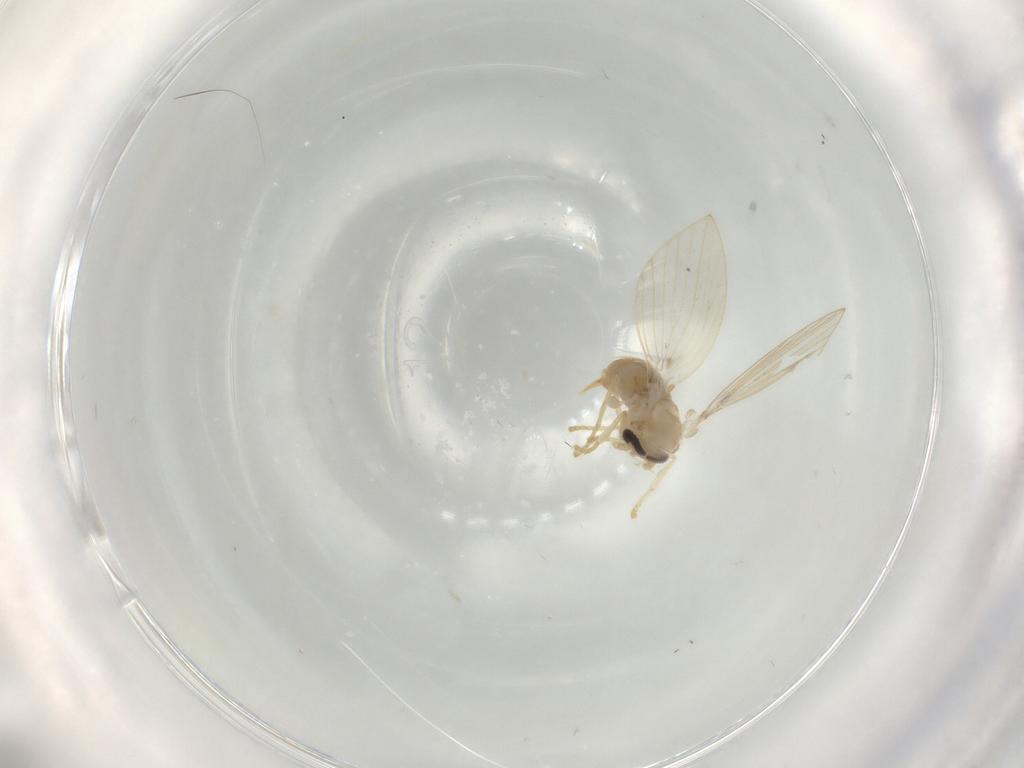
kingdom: Animalia
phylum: Arthropoda
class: Insecta
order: Diptera
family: Psychodidae
